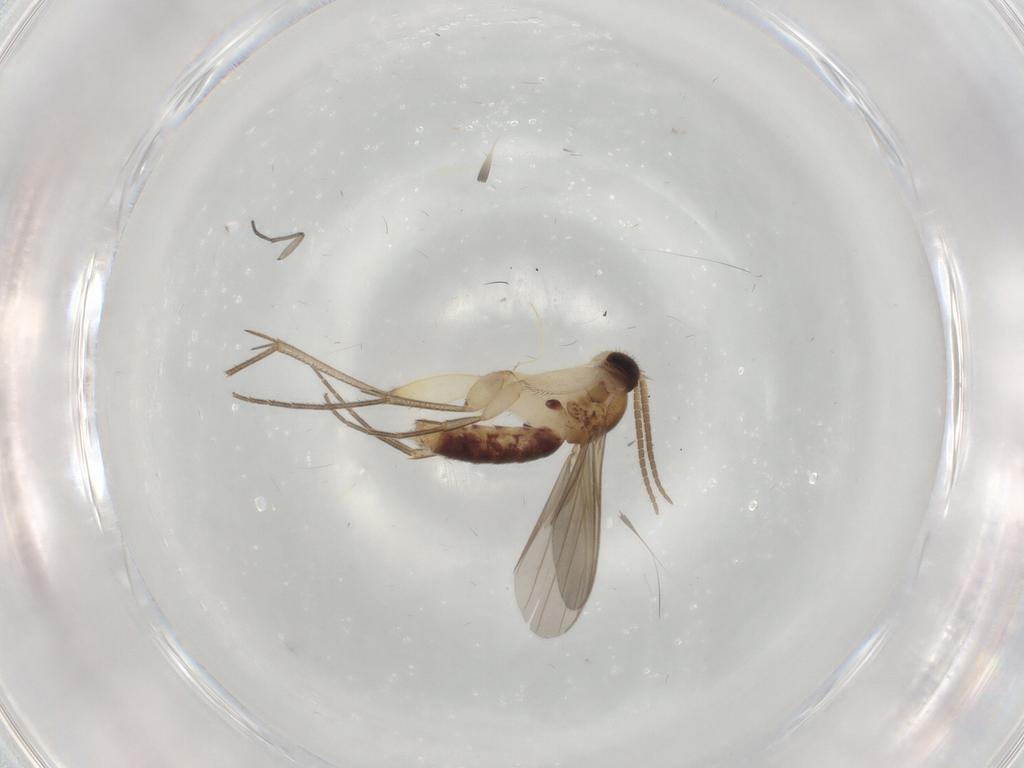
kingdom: Animalia
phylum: Arthropoda
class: Insecta
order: Diptera
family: Mycetophilidae
